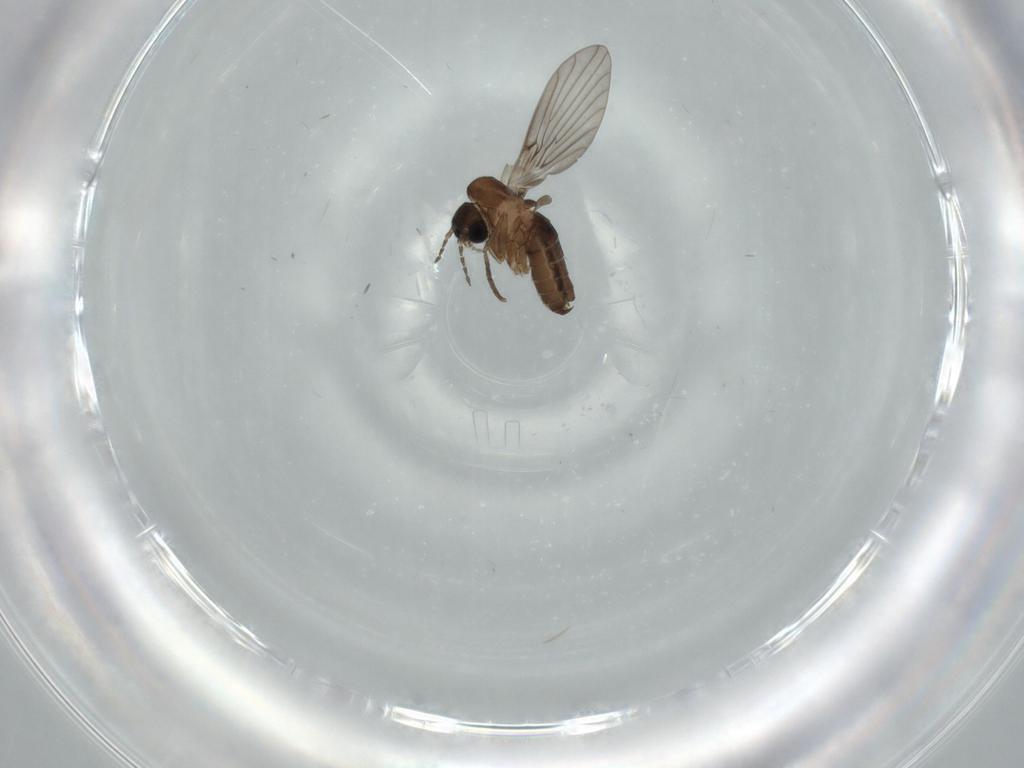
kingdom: Animalia
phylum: Arthropoda
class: Insecta
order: Diptera
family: Psychodidae
